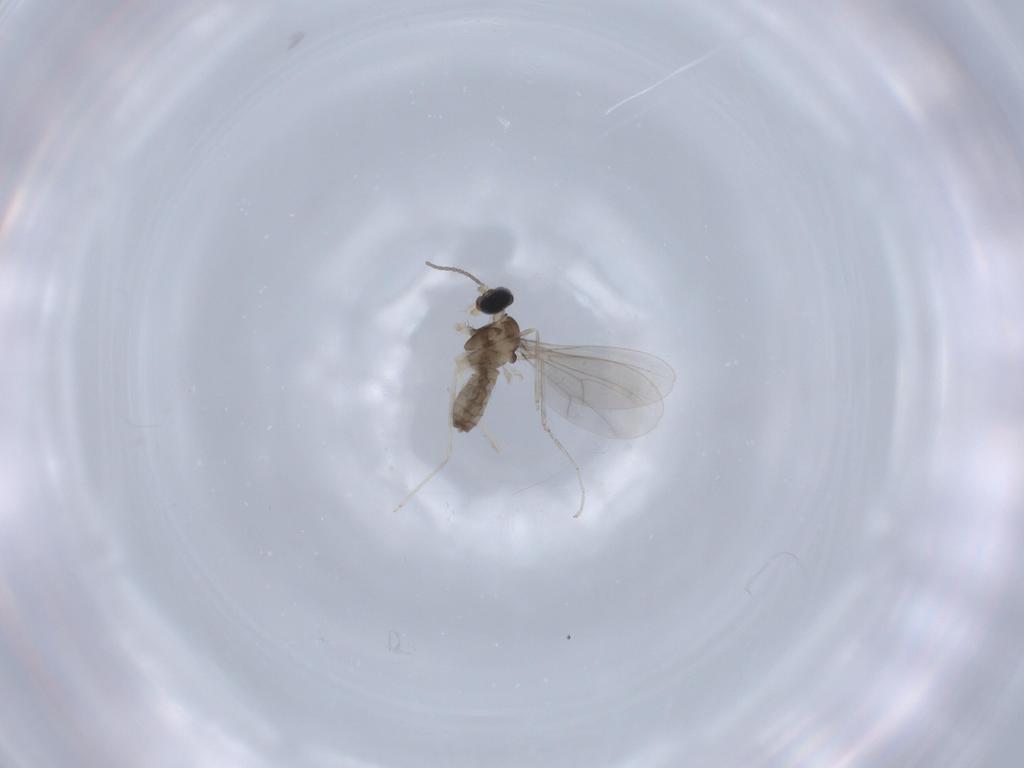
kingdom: Animalia
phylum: Arthropoda
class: Insecta
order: Diptera
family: Cecidomyiidae
